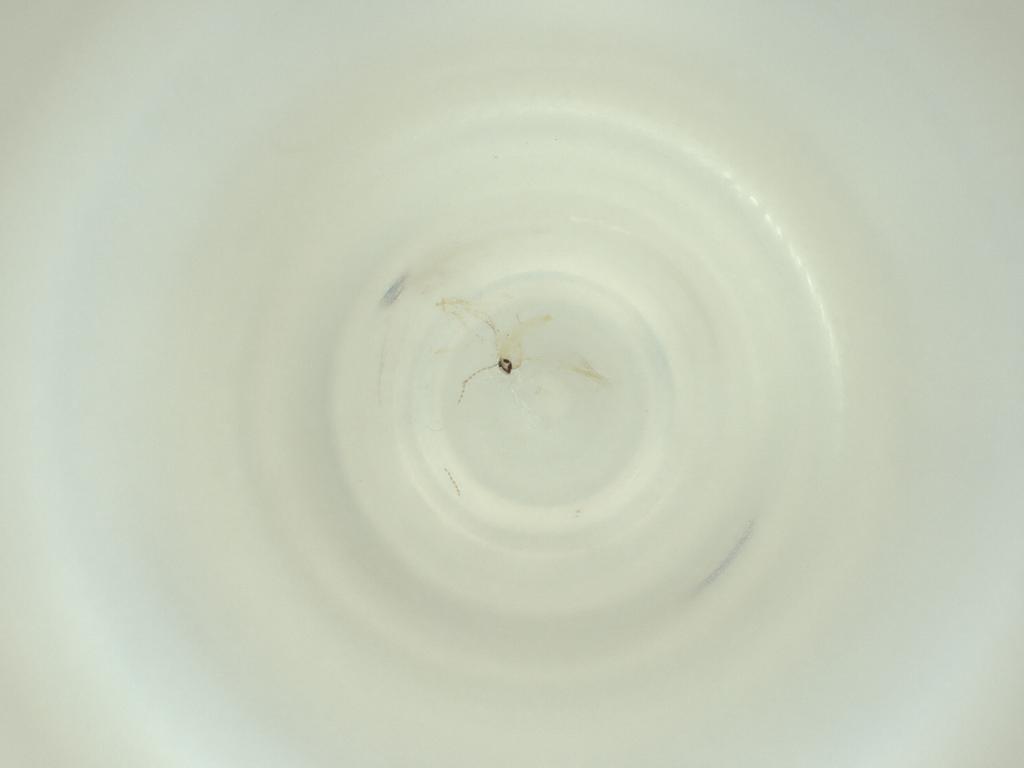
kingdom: Animalia
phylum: Arthropoda
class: Insecta
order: Diptera
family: Cecidomyiidae
